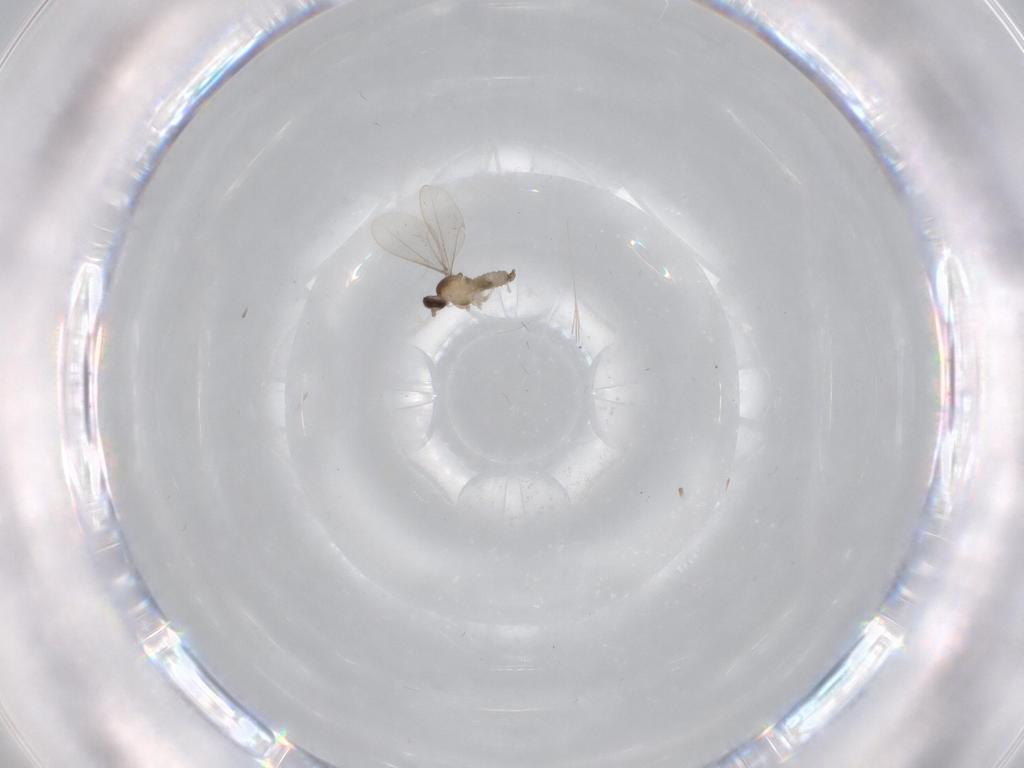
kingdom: Animalia
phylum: Arthropoda
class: Insecta
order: Diptera
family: Cecidomyiidae
